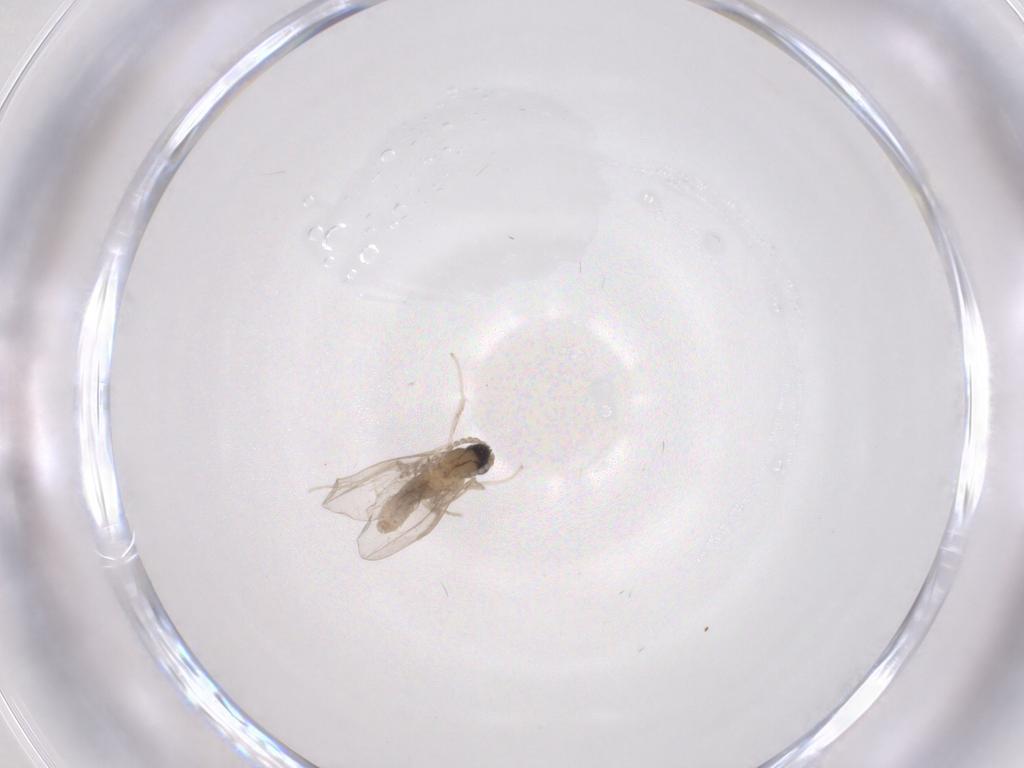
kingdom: Animalia
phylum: Arthropoda
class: Insecta
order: Diptera
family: Cecidomyiidae
